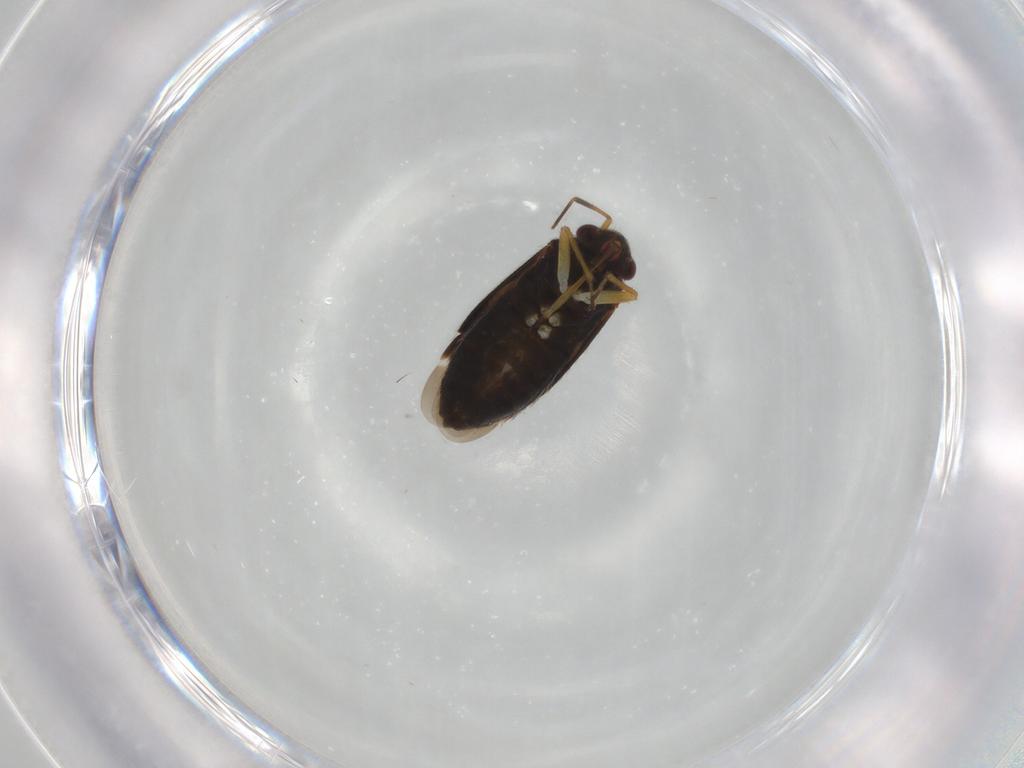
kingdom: Animalia
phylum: Arthropoda
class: Insecta
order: Hemiptera
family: Miridae
